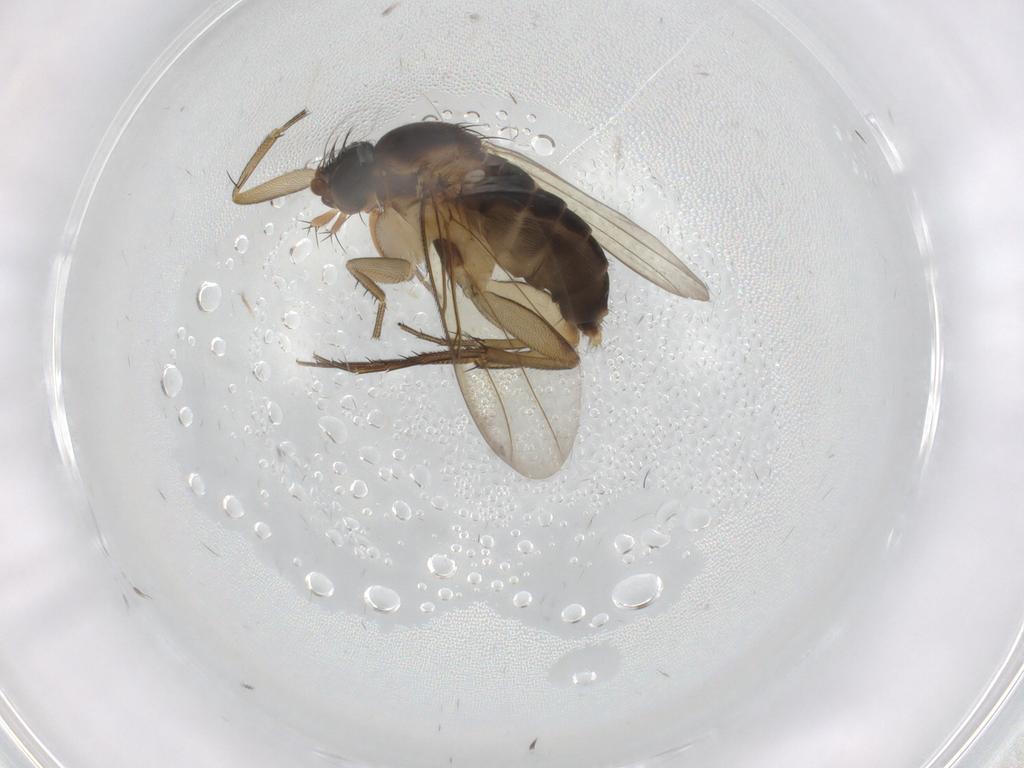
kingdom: Animalia
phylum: Arthropoda
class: Insecta
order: Diptera
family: Phoridae
